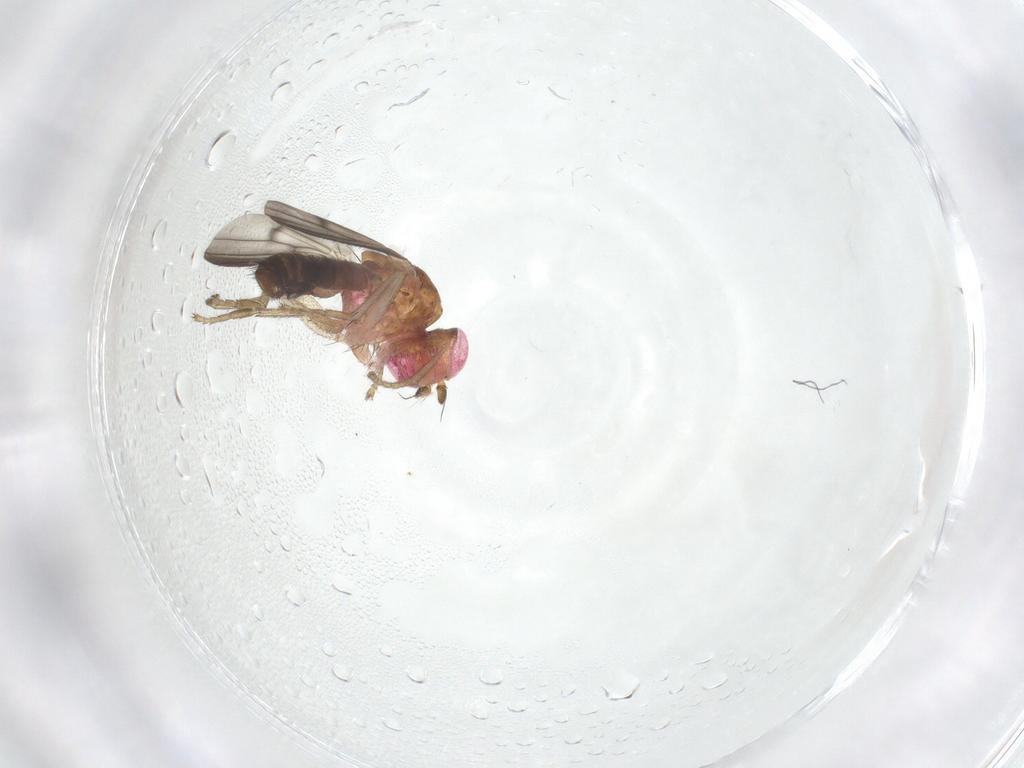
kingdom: Animalia
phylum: Arthropoda
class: Insecta
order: Diptera
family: Heleomyzidae
